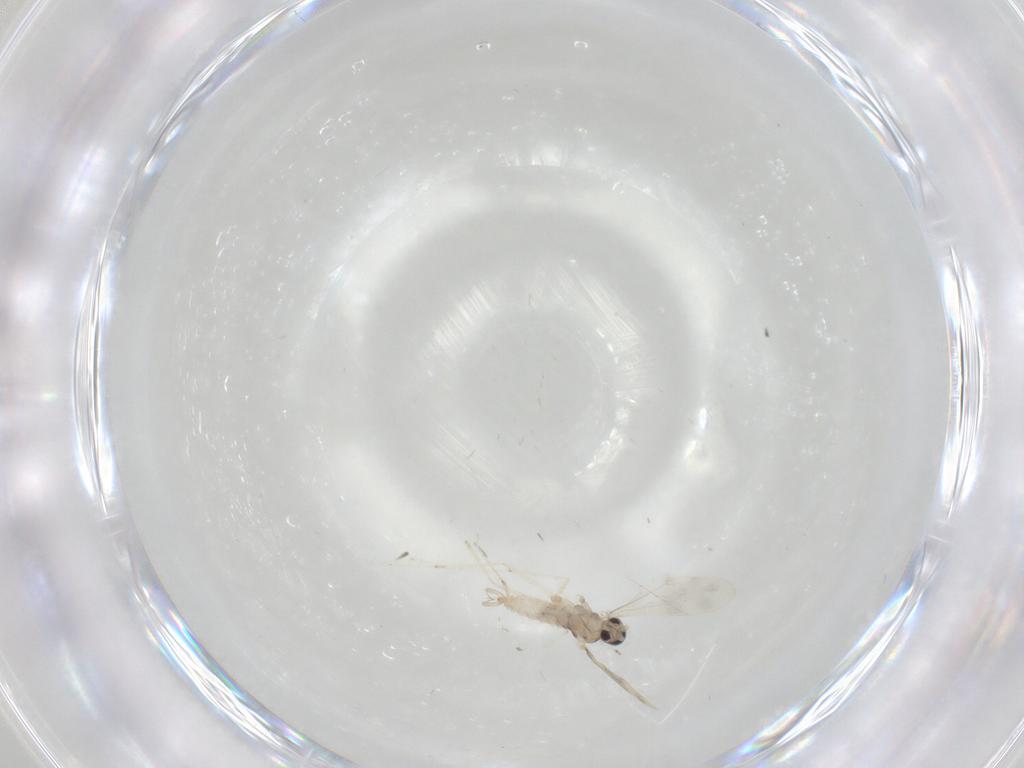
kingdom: Animalia
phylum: Arthropoda
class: Insecta
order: Diptera
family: Cecidomyiidae
